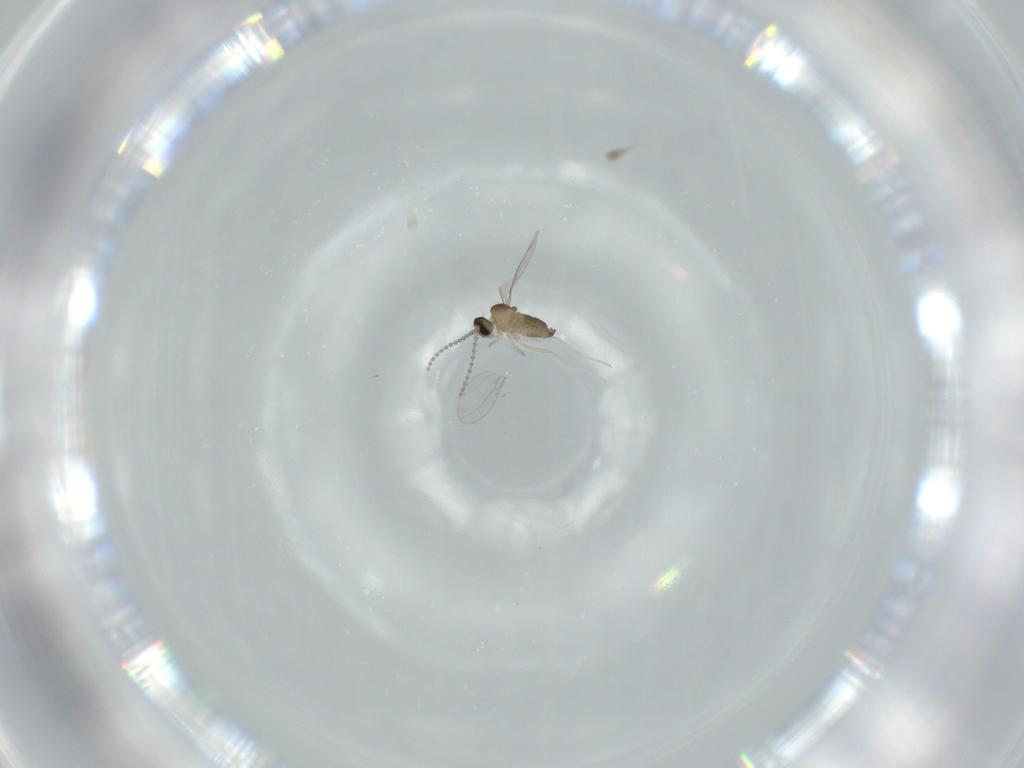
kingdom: Animalia
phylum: Arthropoda
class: Insecta
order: Diptera
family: Cecidomyiidae
